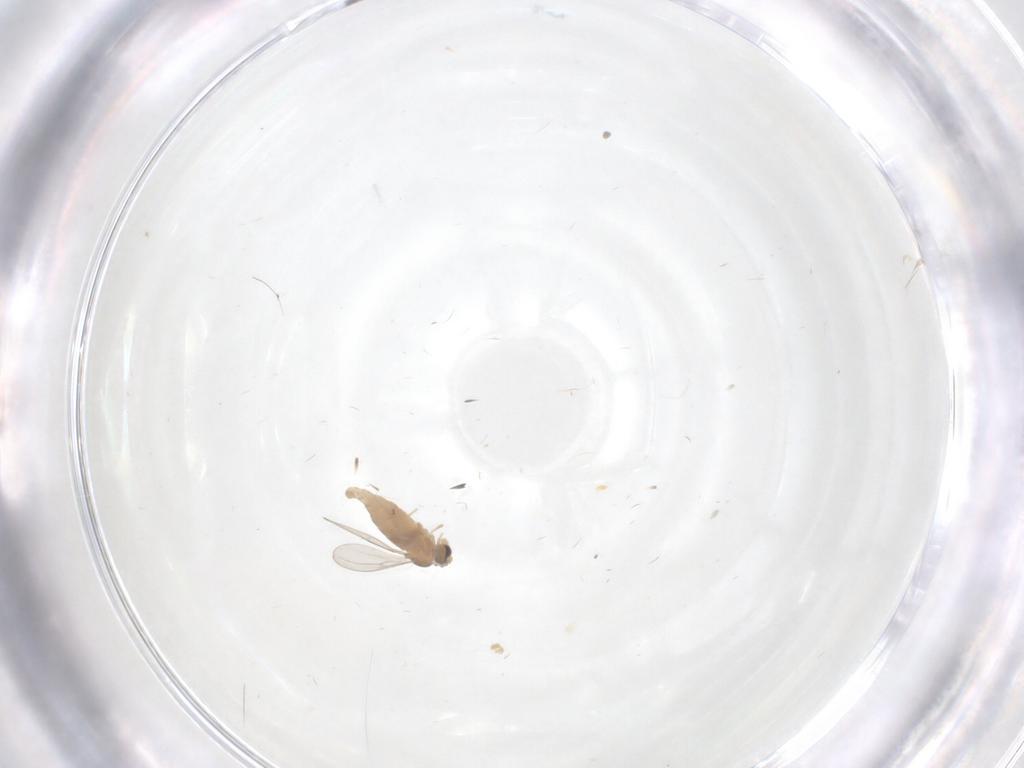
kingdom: Animalia
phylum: Arthropoda
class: Insecta
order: Diptera
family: Cecidomyiidae
